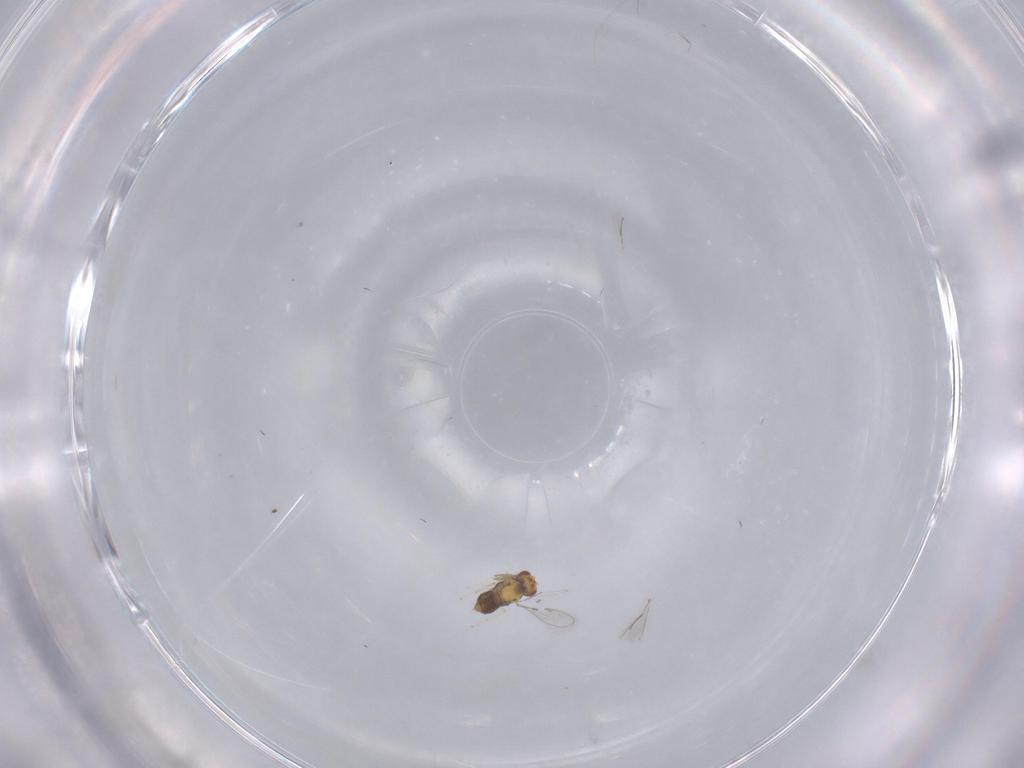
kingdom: Animalia
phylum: Arthropoda
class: Insecta
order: Hymenoptera
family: Aphelinidae
